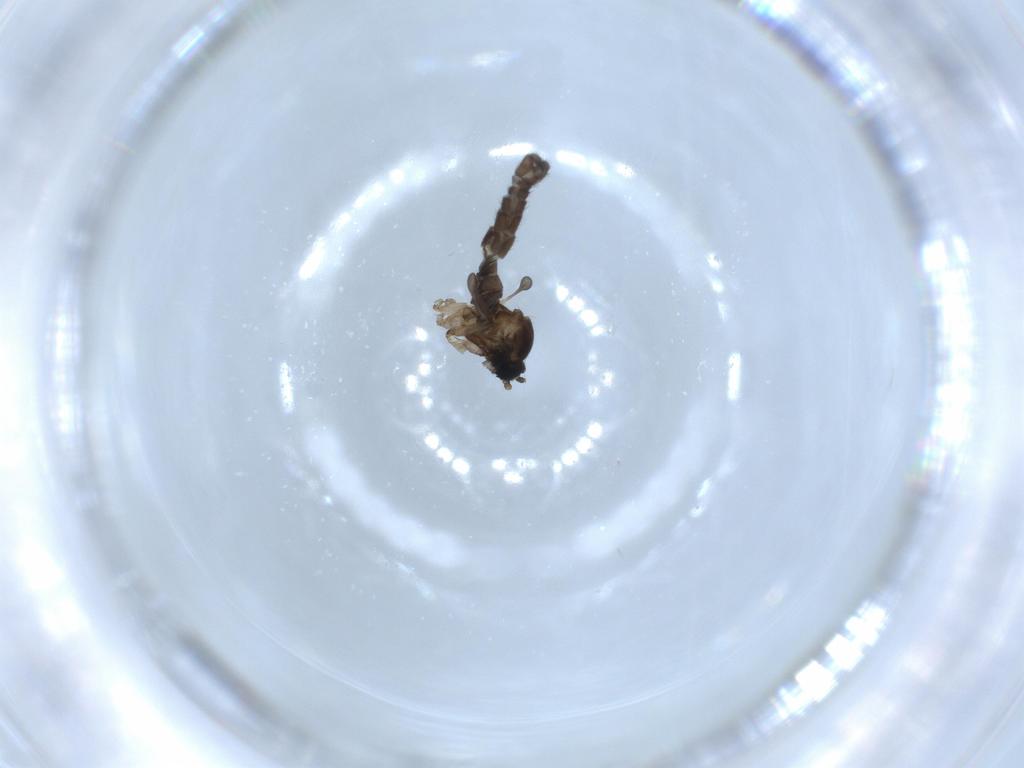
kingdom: Animalia
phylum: Arthropoda
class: Insecta
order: Diptera
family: Sciaridae
